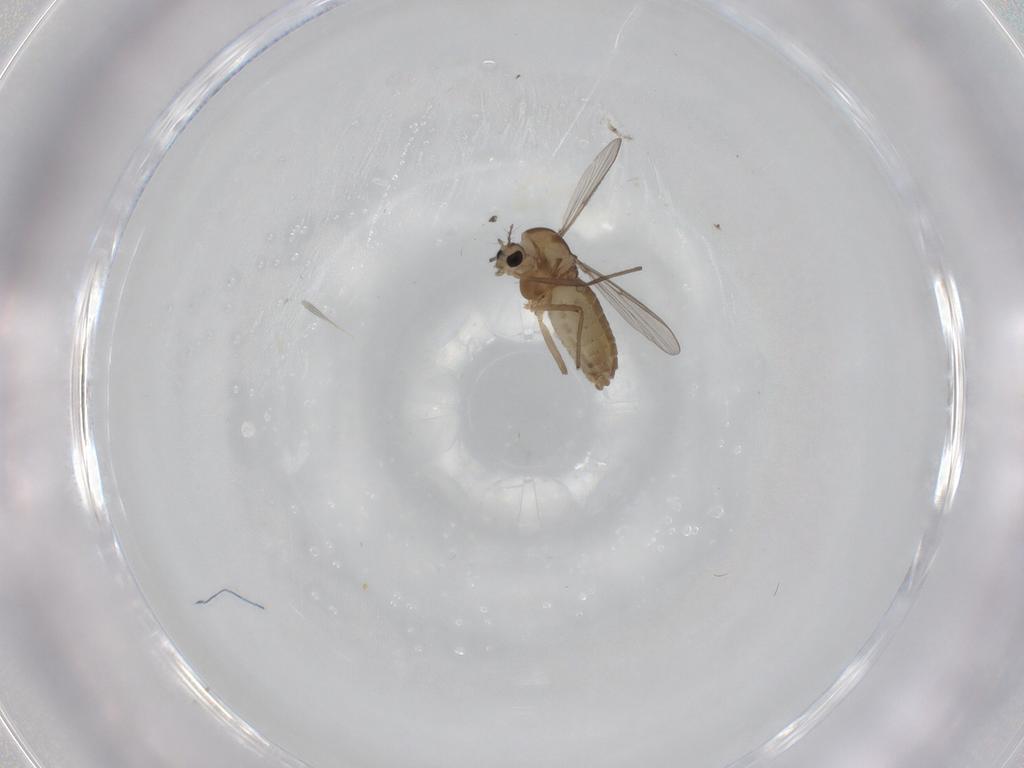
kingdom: Animalia
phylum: Arthropoda
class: Insecta
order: Diptera
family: Chironomidae
